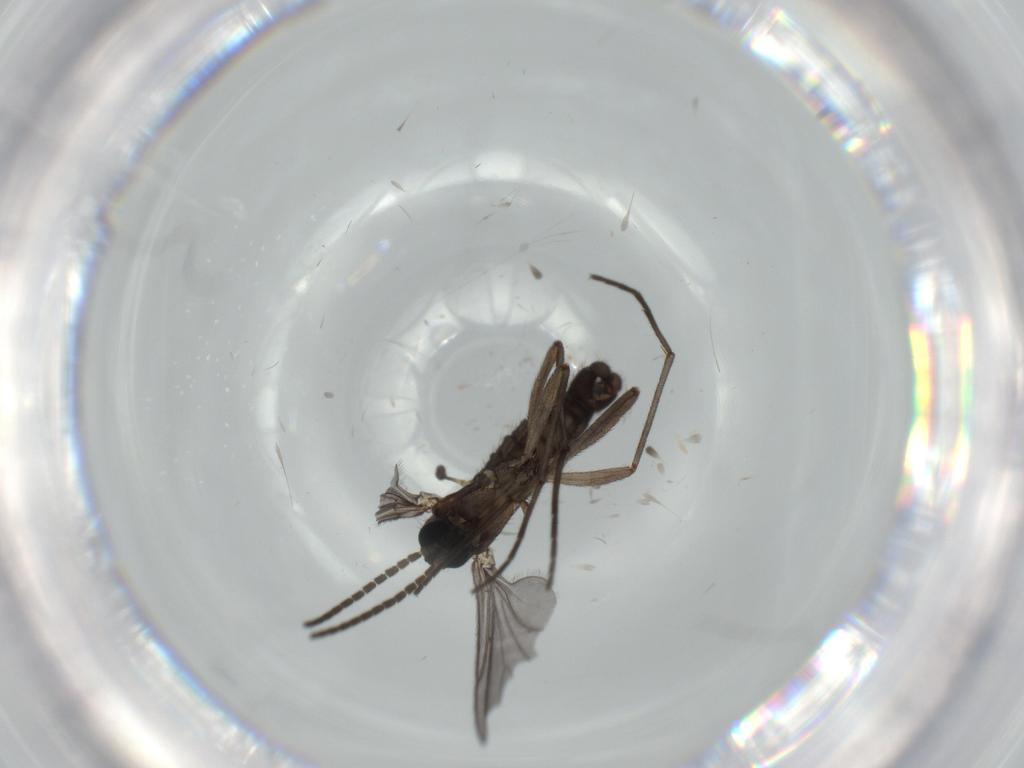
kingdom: Animalia
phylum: Arthropoda
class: Insecta
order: Diptera
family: Sciaridae
